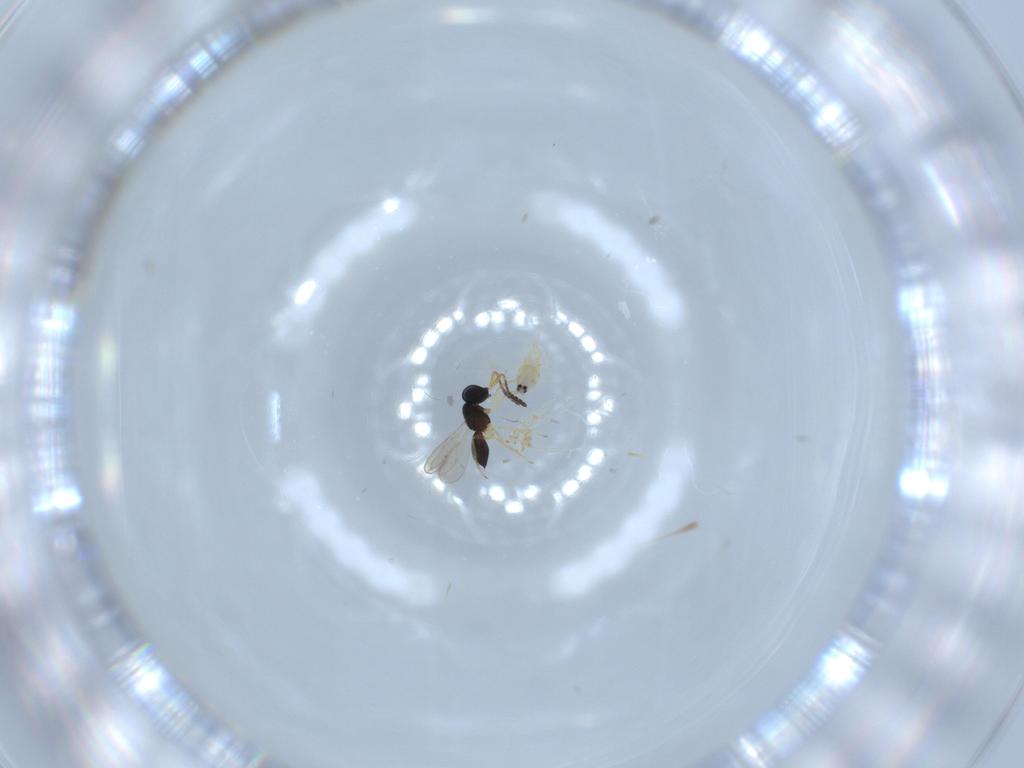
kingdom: Animalia
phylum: Arthropoda
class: Insecta
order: Hymenoptera
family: Scelionidae
